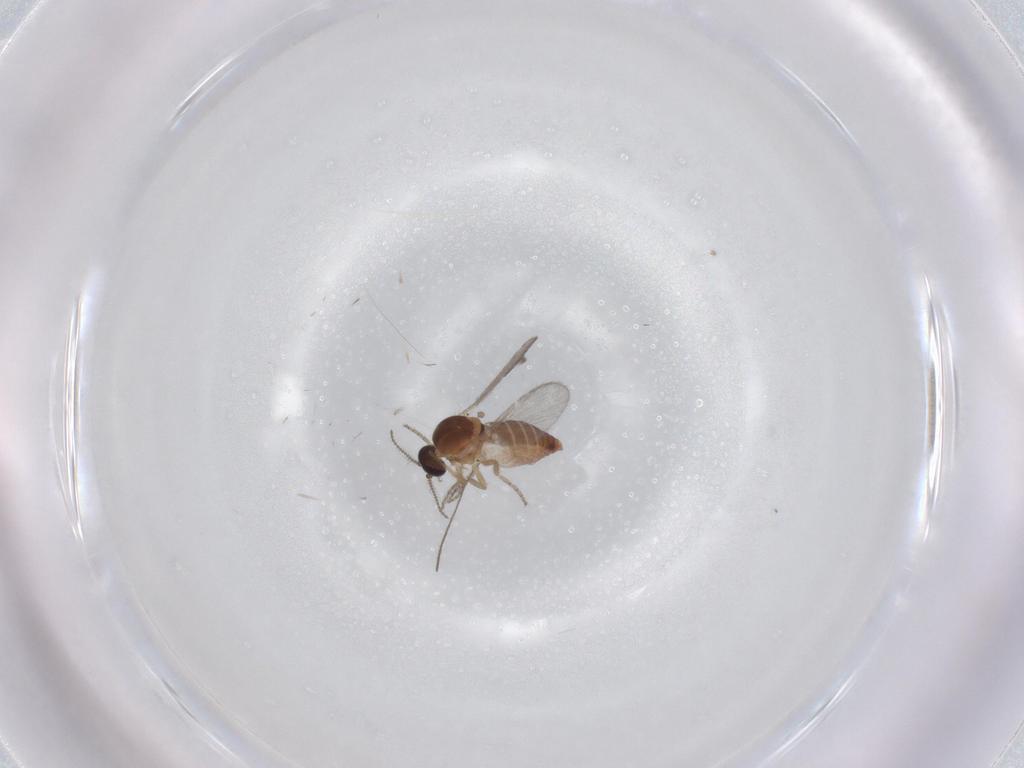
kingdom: Animalia
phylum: Arthropoda
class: Insecta
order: Diptera
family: Ceratopogonidae
